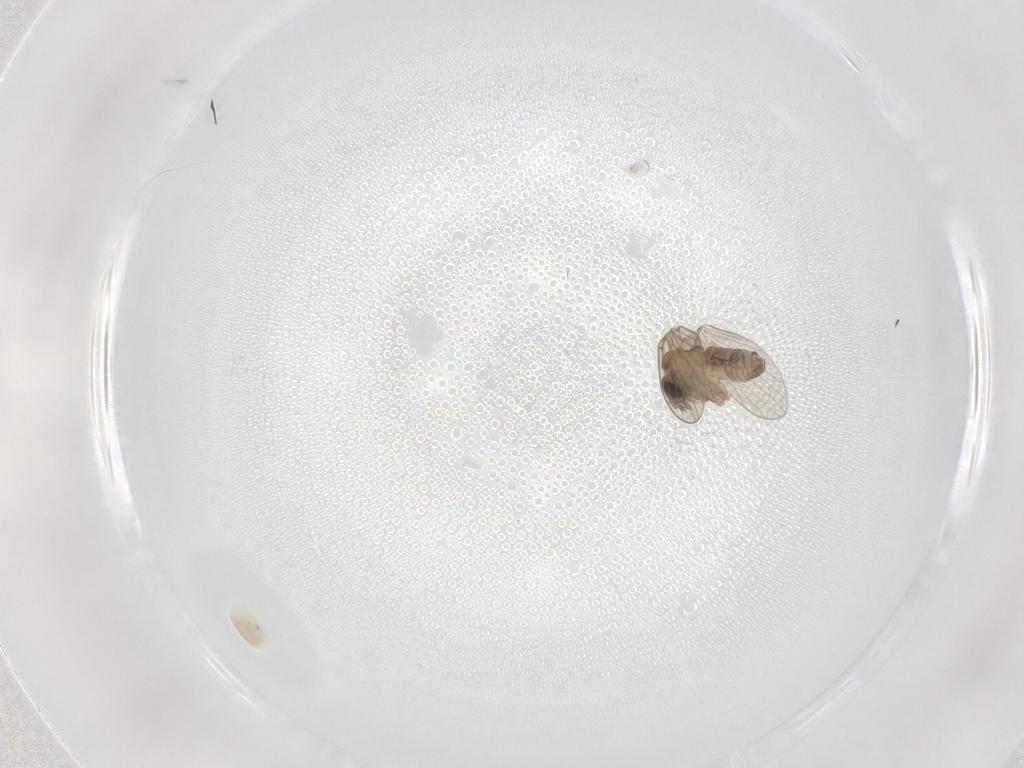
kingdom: Animalia
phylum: Arthropoda
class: Insecta
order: Diptera
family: Psychodidae
